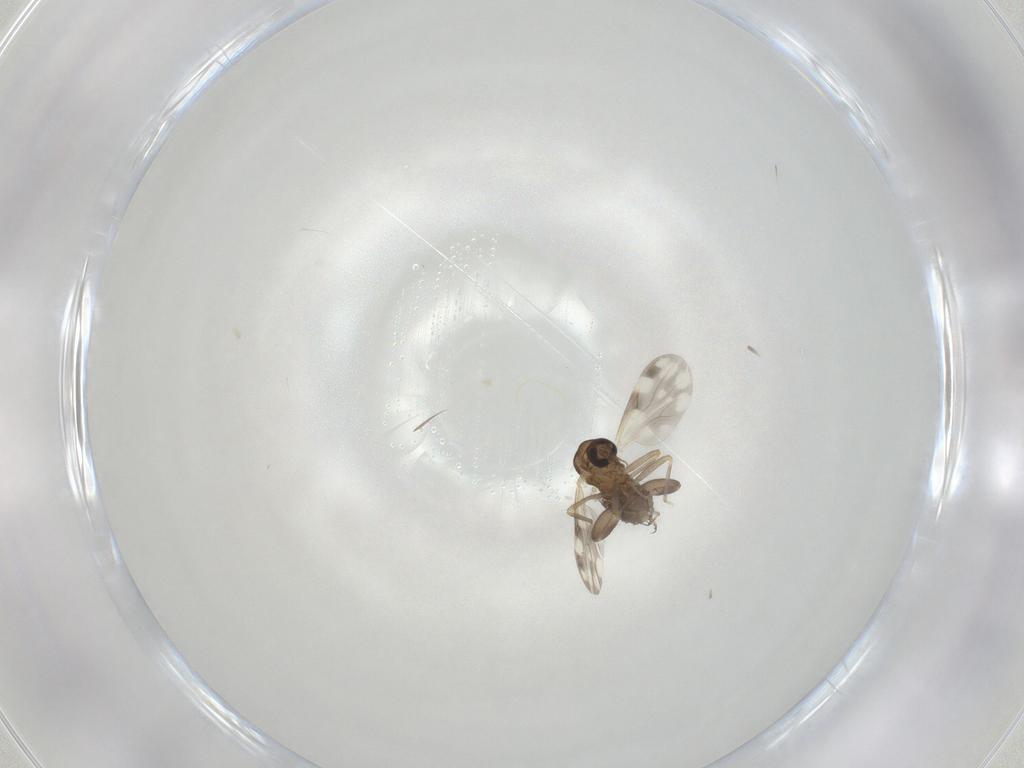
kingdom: Animalia
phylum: Arthropoda
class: Insecta
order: Diptera
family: Ceratopogonidae
